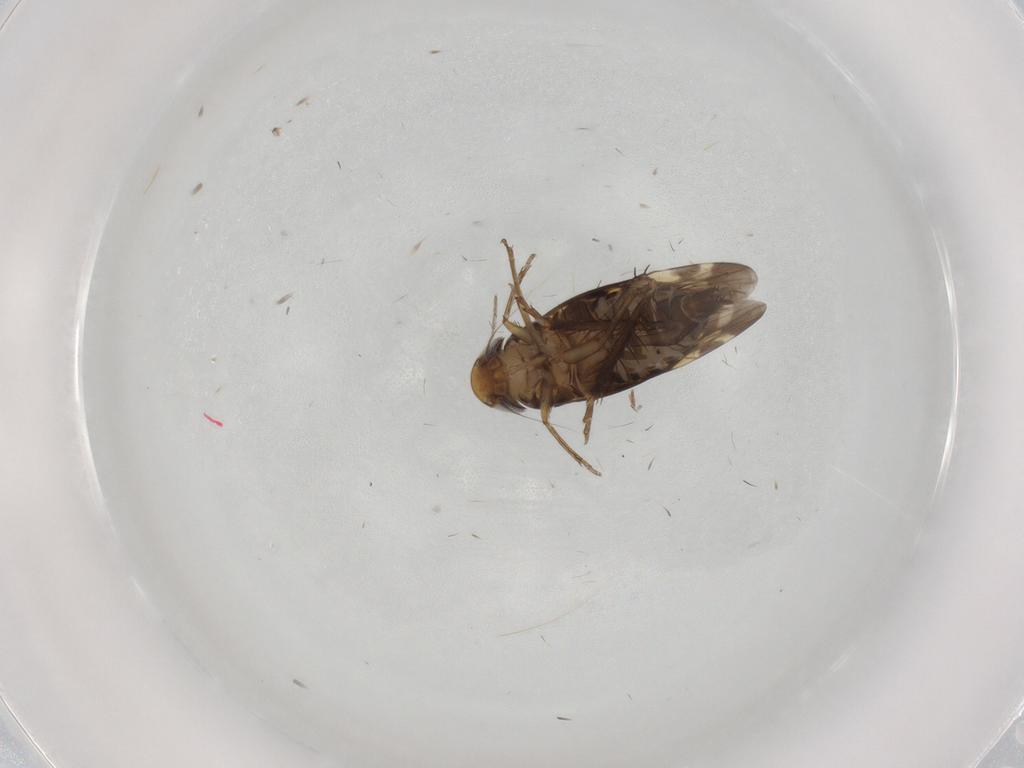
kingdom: Animalia
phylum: Arthropoda
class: Insecta
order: Hemiptera
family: Cicadellidae
